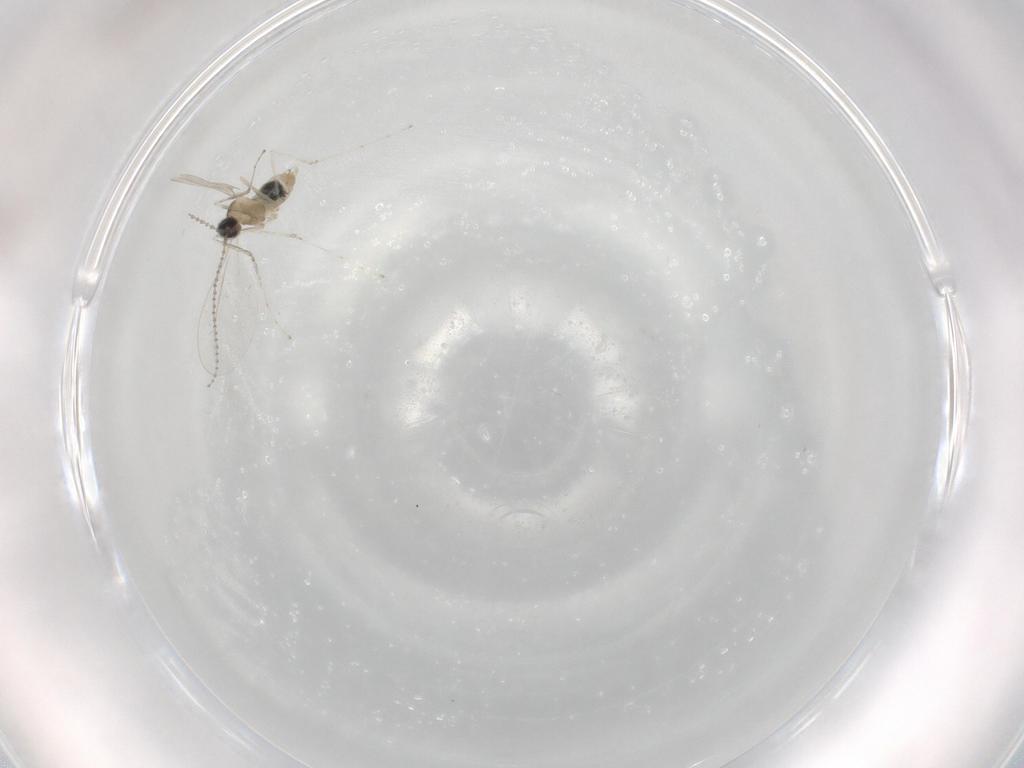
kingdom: Animalia
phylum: Arthropoda
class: Insecta
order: Diptera
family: Cecidomyiidae
